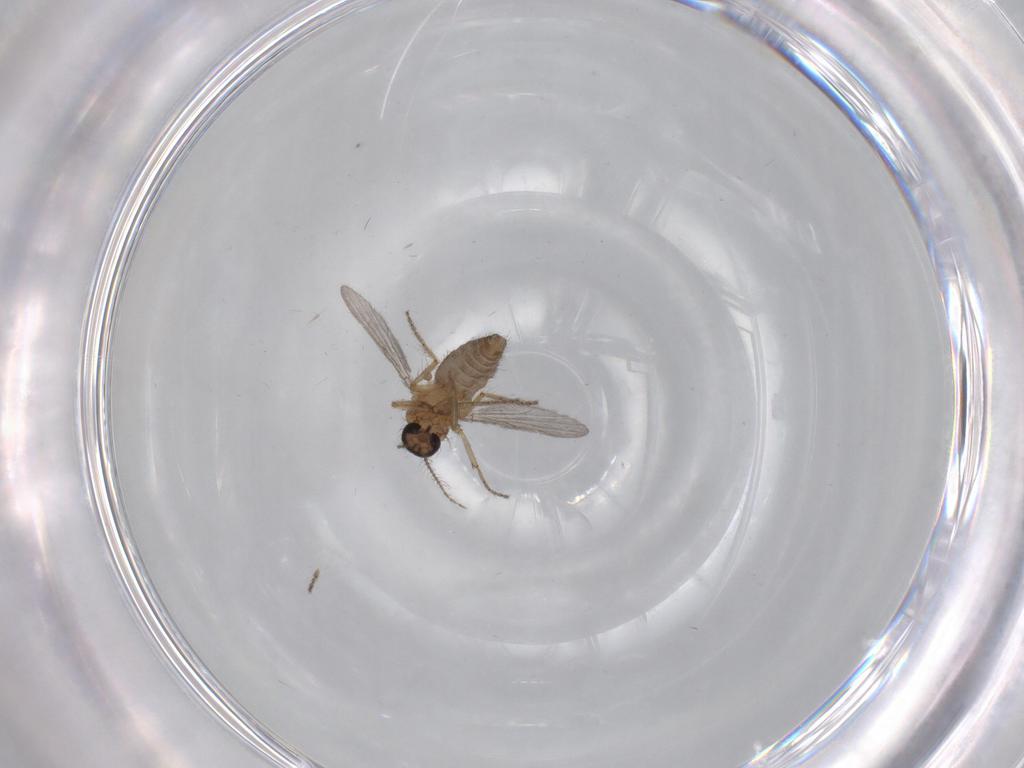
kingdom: Animalia
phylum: Arthropoda
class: Insecta
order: Diptera
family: Ceratopogonidae
